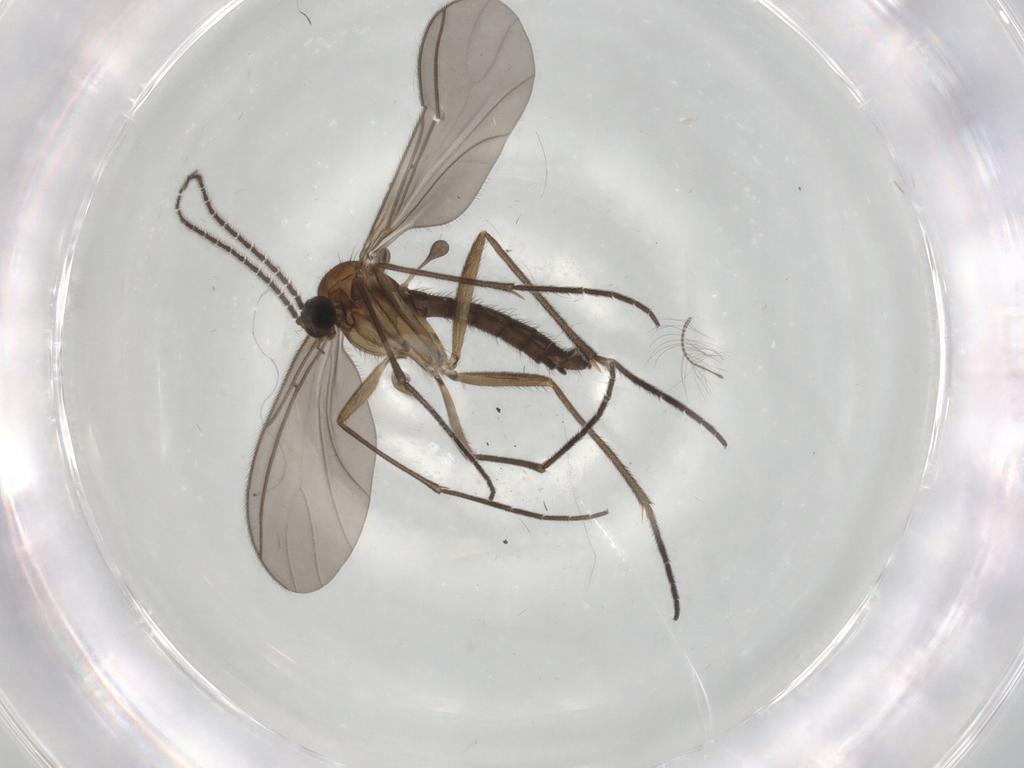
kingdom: Animalia
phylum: Arthropoda
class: Insecta
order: Diptera
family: Sciaridae
